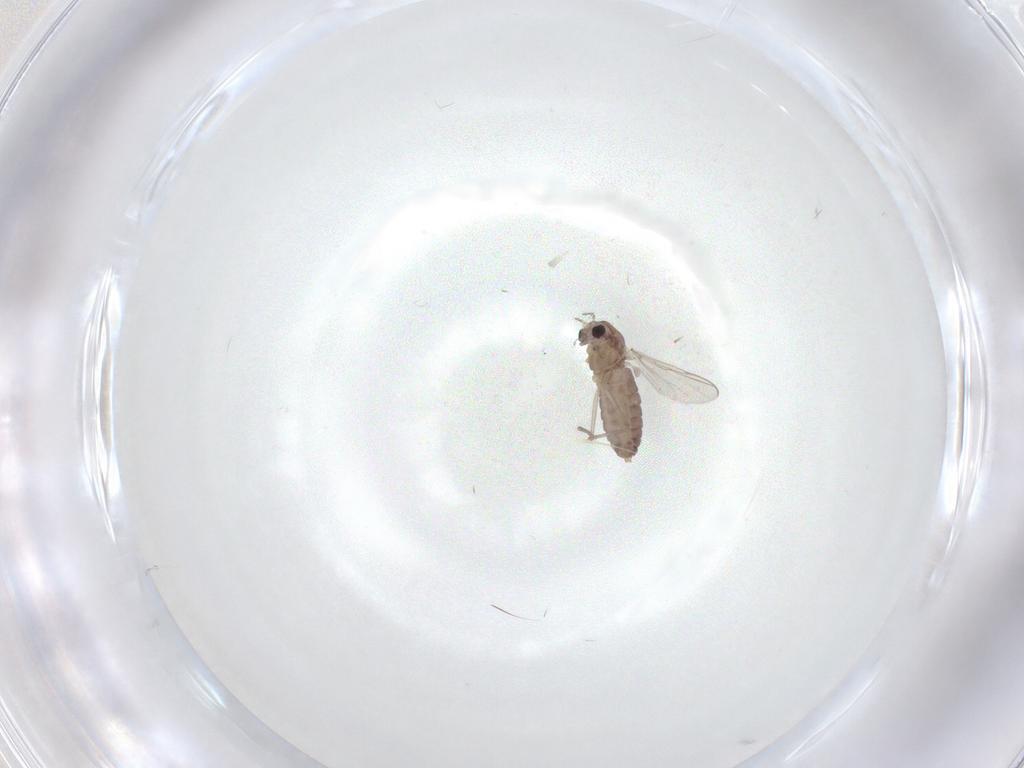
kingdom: Animalia
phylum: Arthropoda
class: Insecta
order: Diptera
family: Chironomidae
